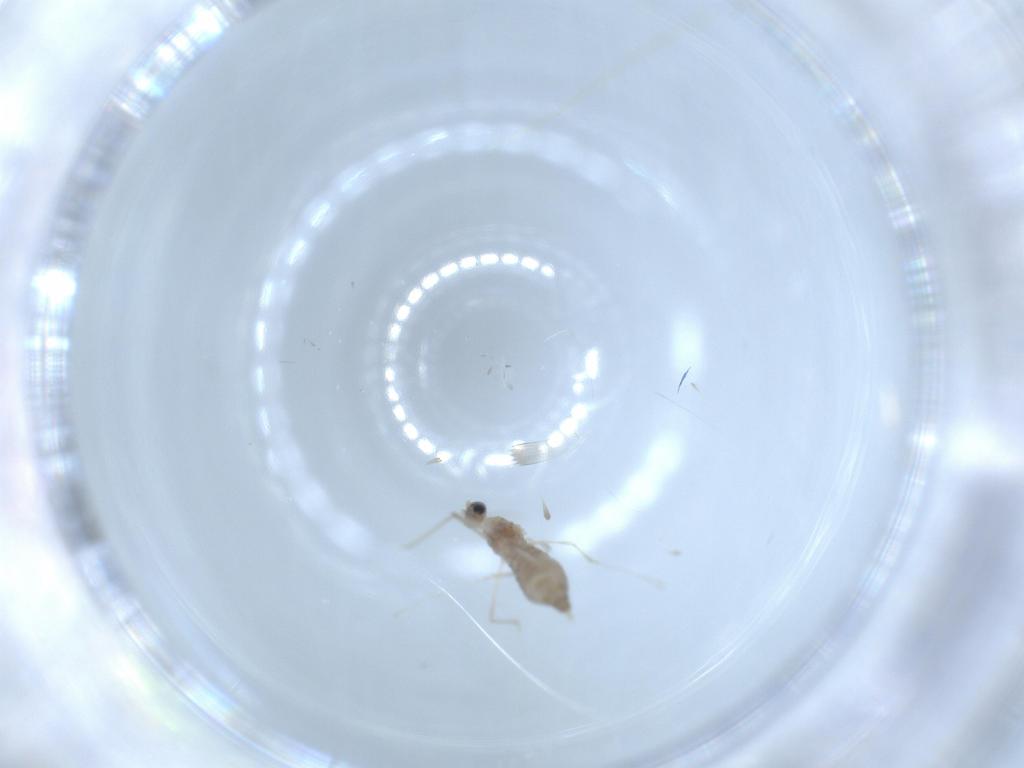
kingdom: Animalia
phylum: Arthropoda
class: Insecta
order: Diptera
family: Cecidomyiidae
